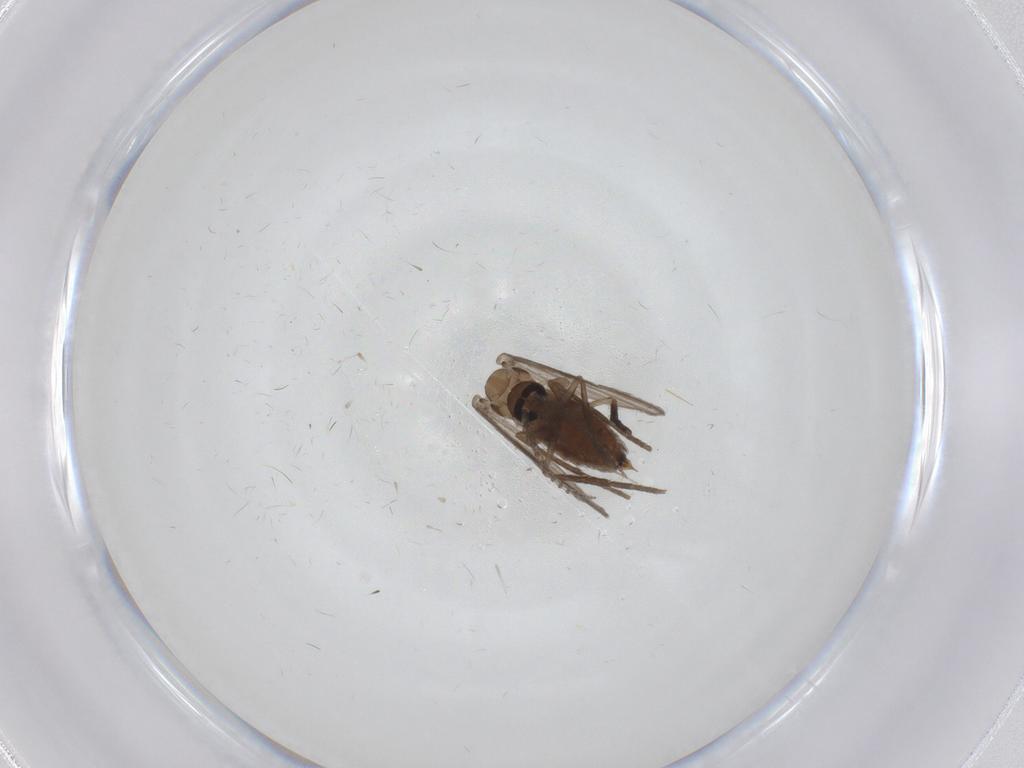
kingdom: Animalia
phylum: Arthropoda
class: Insecta
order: Diptera
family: Psychodidae
